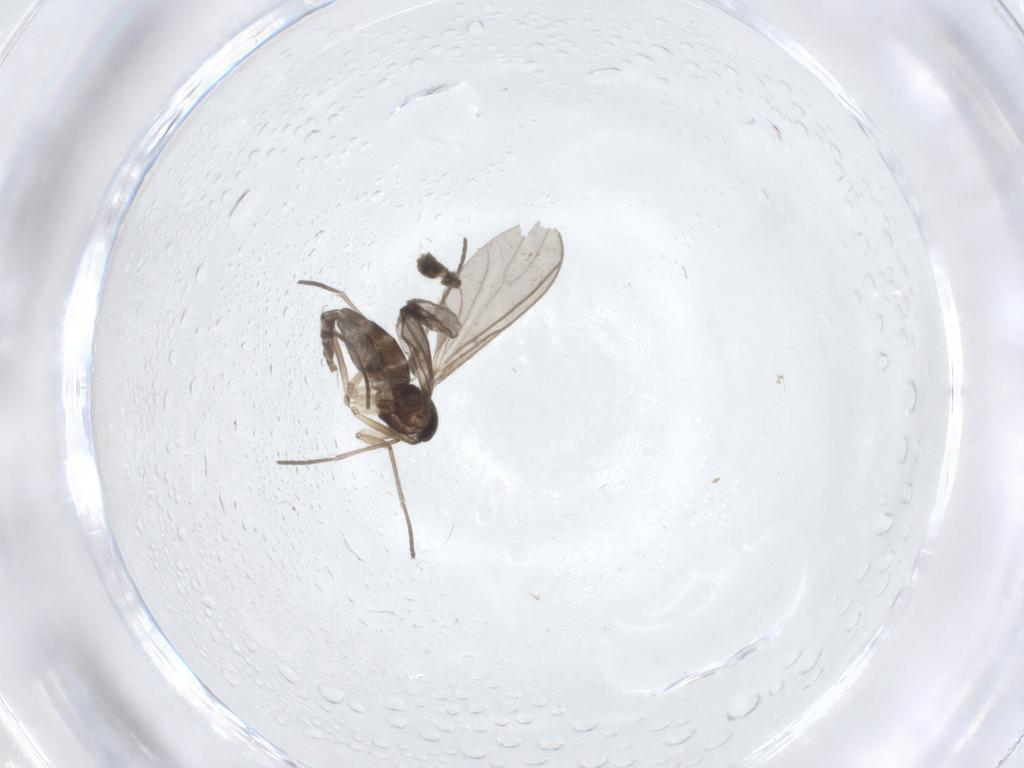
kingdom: Animalia
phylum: Arthropoda
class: Insecta
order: Diptera
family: Sciaridae
